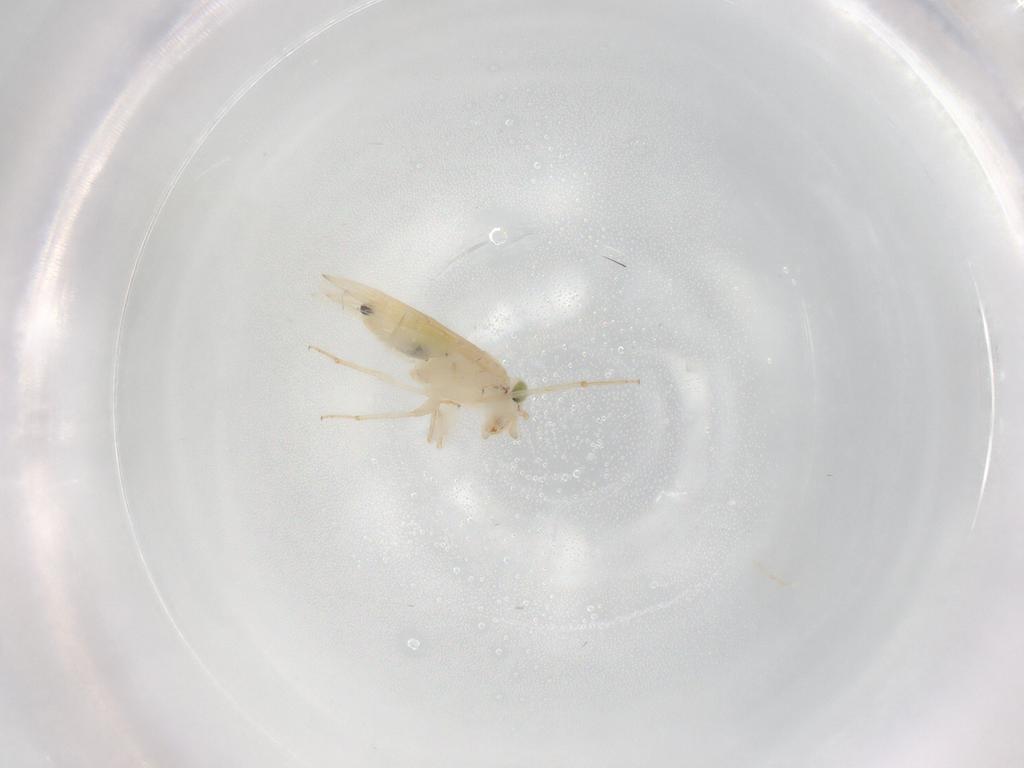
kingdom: Animalia
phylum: Arthropoda
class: Insecta
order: Psocodea
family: Lepidopsocidae
